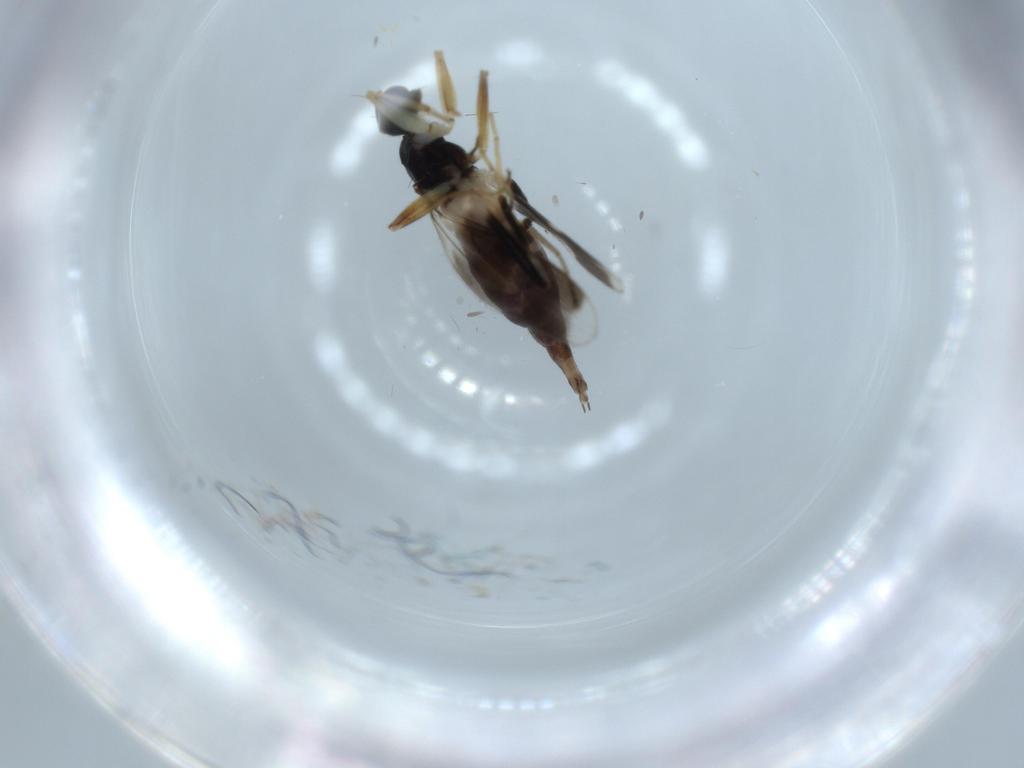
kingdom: Animalia
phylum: Arthropoda
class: Insecta
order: Diptera
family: Hybotidae
